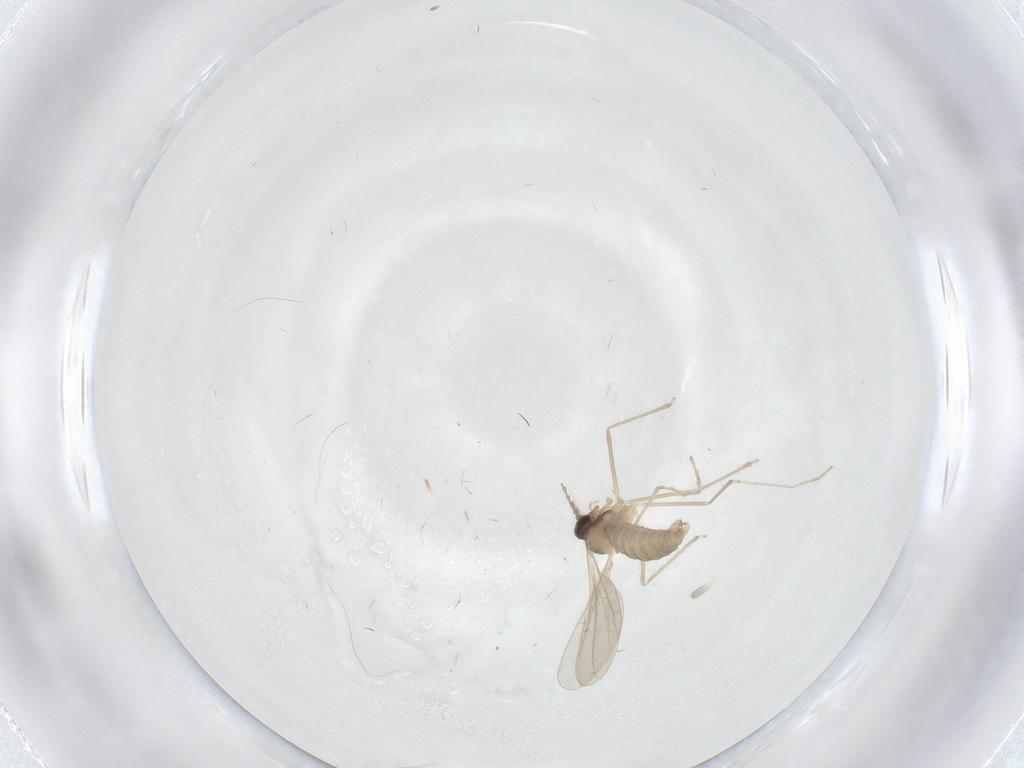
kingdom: Animalia
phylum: Arthropoda
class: Insecta
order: Diptera
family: Cecidomyiidae
